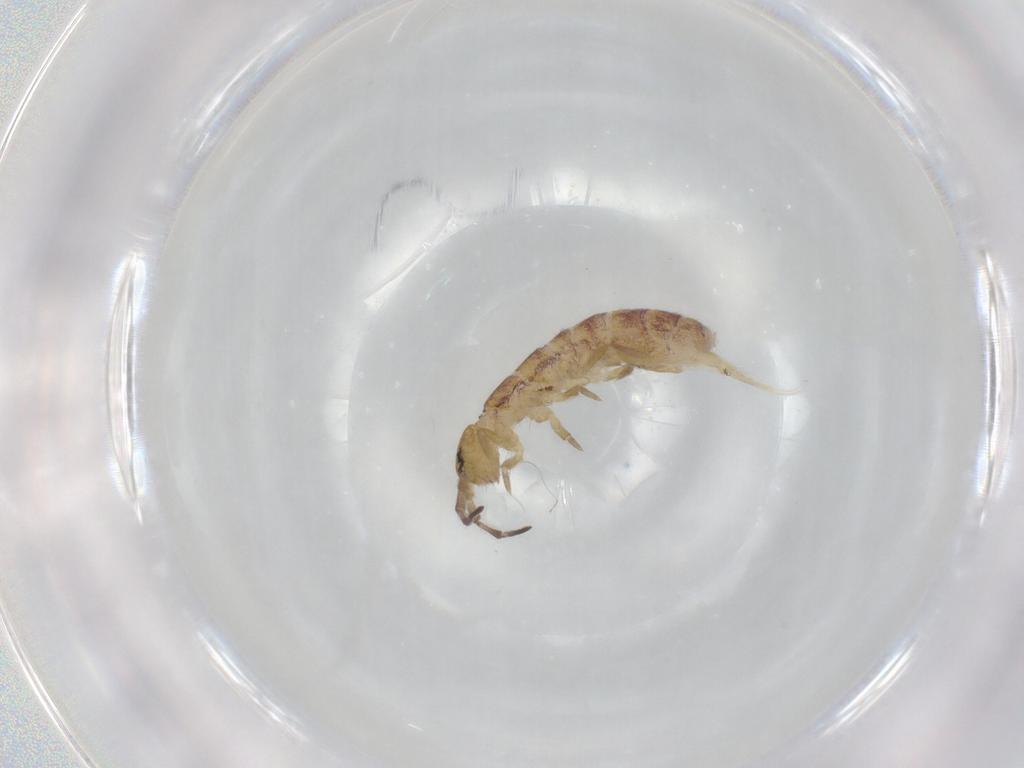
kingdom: Animalia
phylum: Arthropoda
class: Collembola
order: Entomobryomorpha
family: Isotomidae
